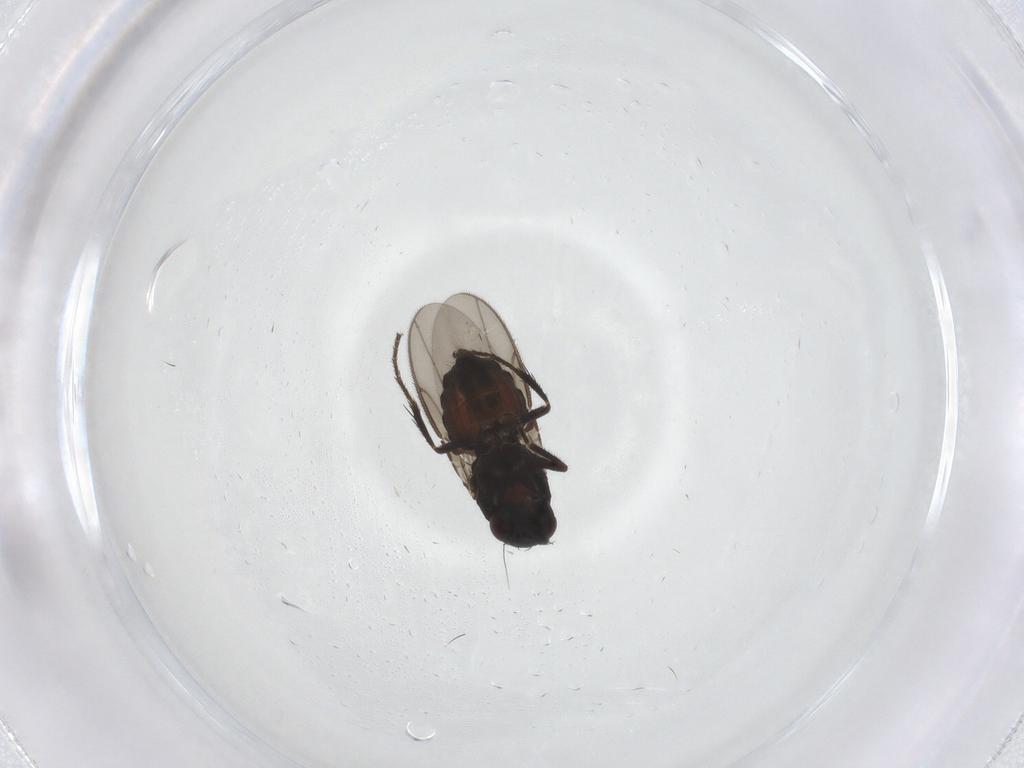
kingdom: Animalia
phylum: Arthropoda
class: Insecta
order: Diptera
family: Sphaeroceridae
